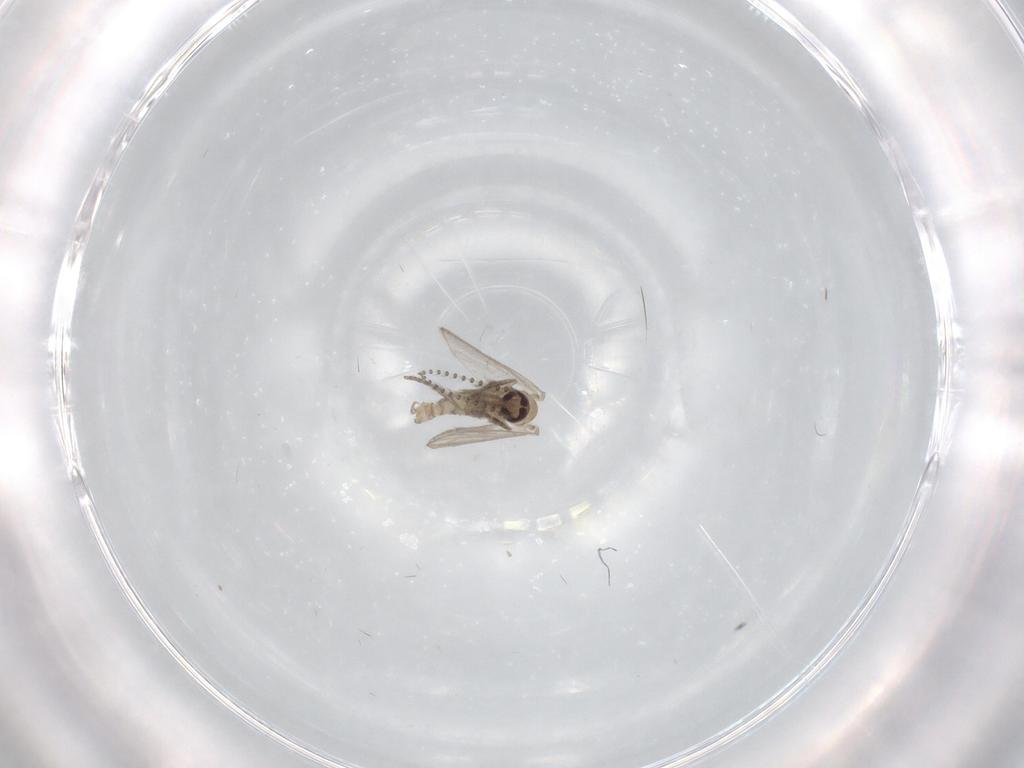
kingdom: Animalia
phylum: Arthropoda
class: Insecta
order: Diptera
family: Psychodidae
